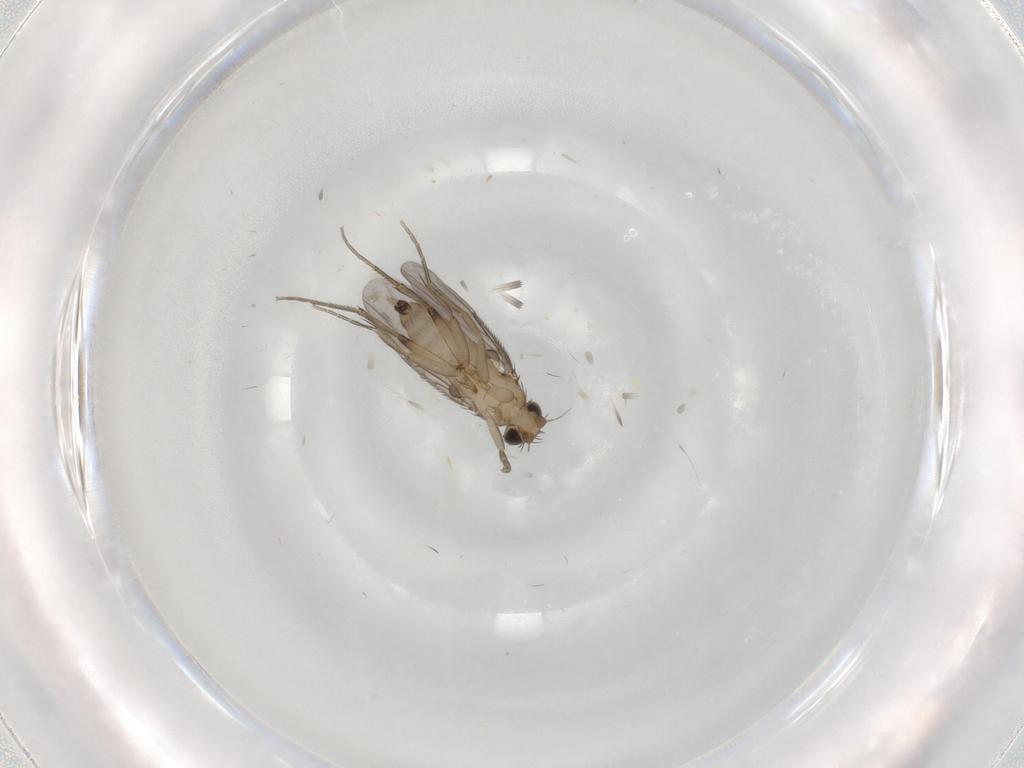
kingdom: Animalia
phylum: Arthropoda
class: Insecta
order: Diptera
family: Phoridae
